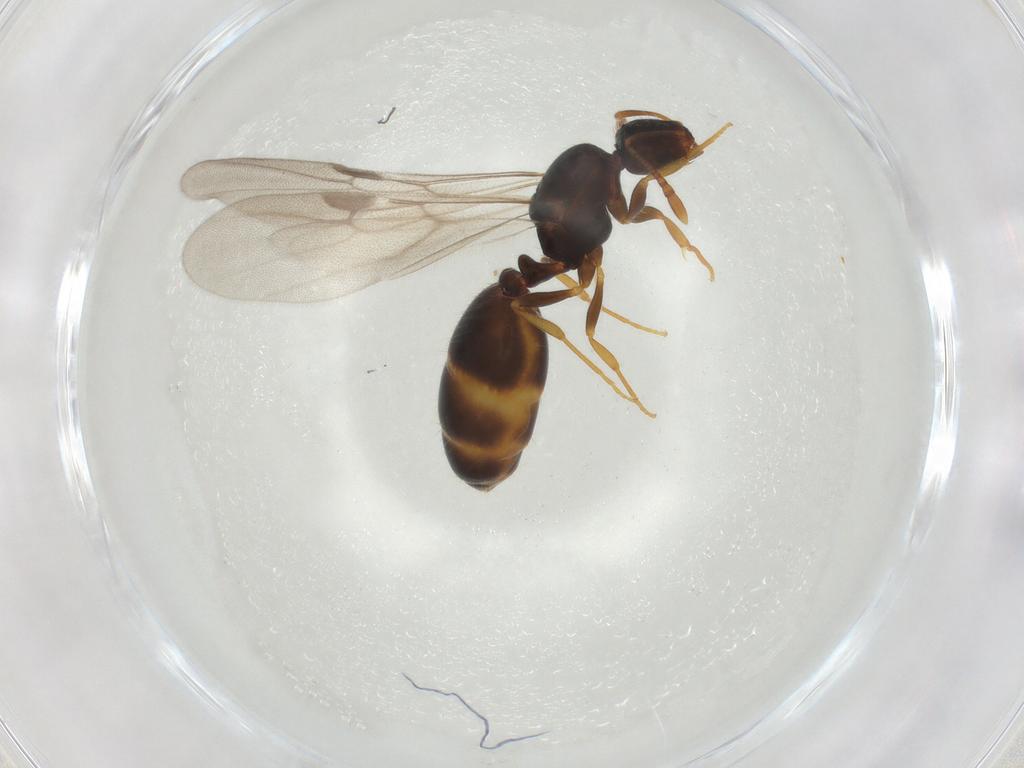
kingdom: Animalia
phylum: Arthropoda
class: Insecta
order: Hymenoptera
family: Formicidae
